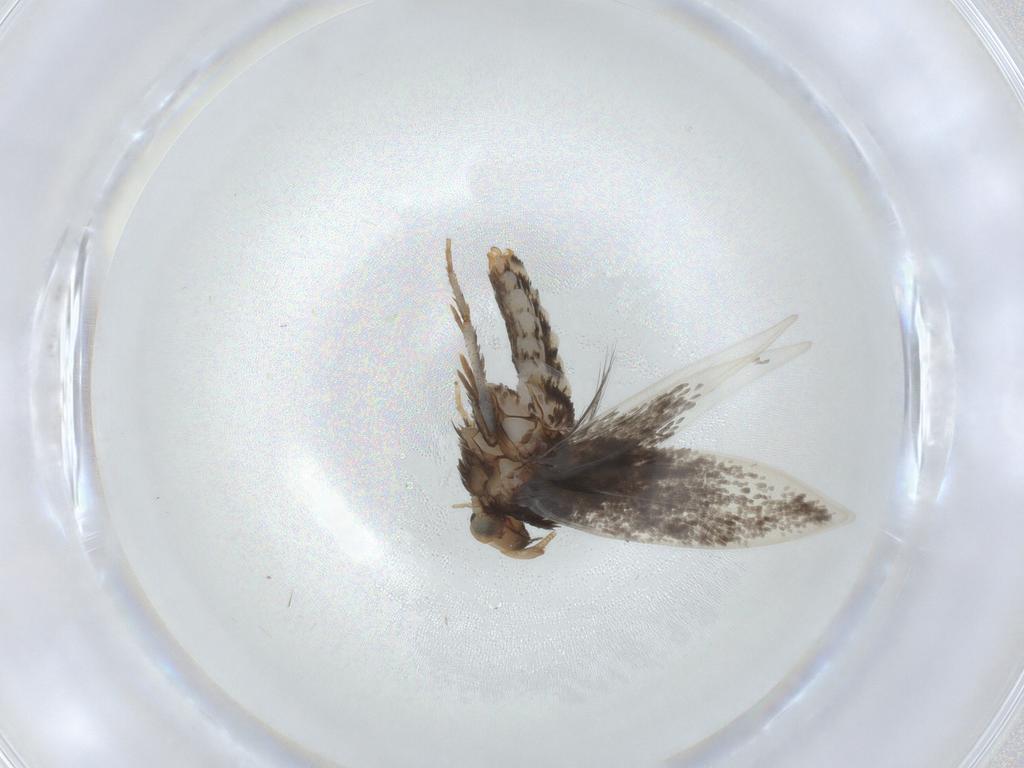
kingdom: Animalia
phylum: Arthropoda
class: Insecta
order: Lepidoptera
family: Opostegidae
